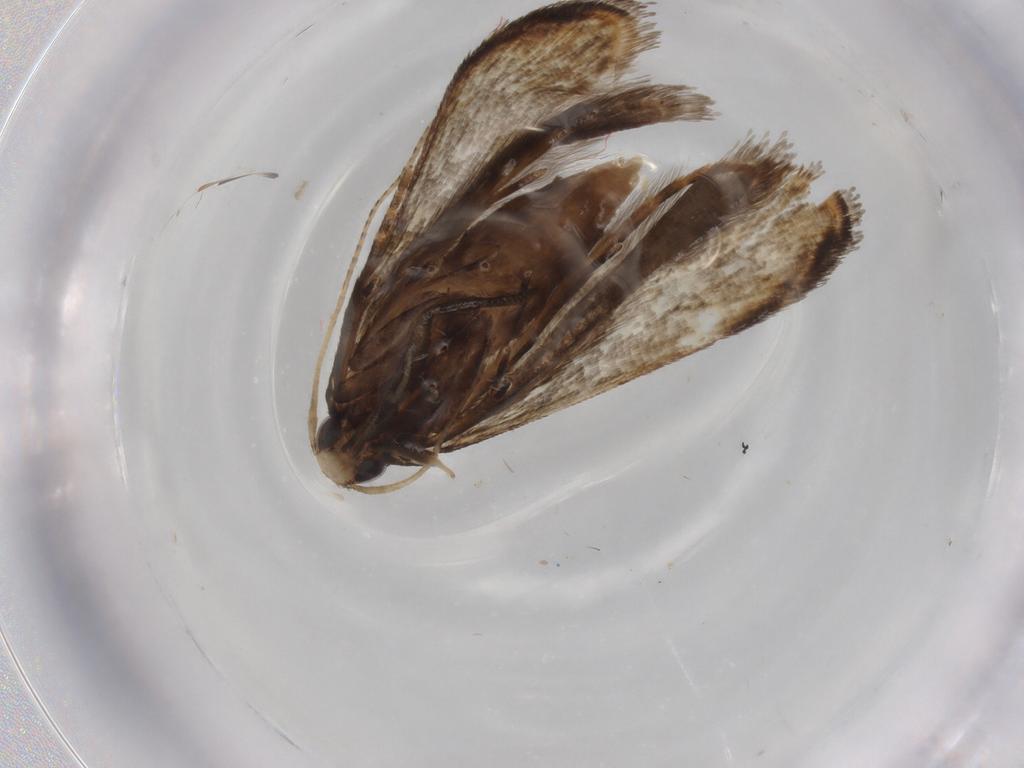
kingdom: Animalia
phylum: Arthropoda
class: Insecta
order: Lepidoptera
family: Gelechiidae
